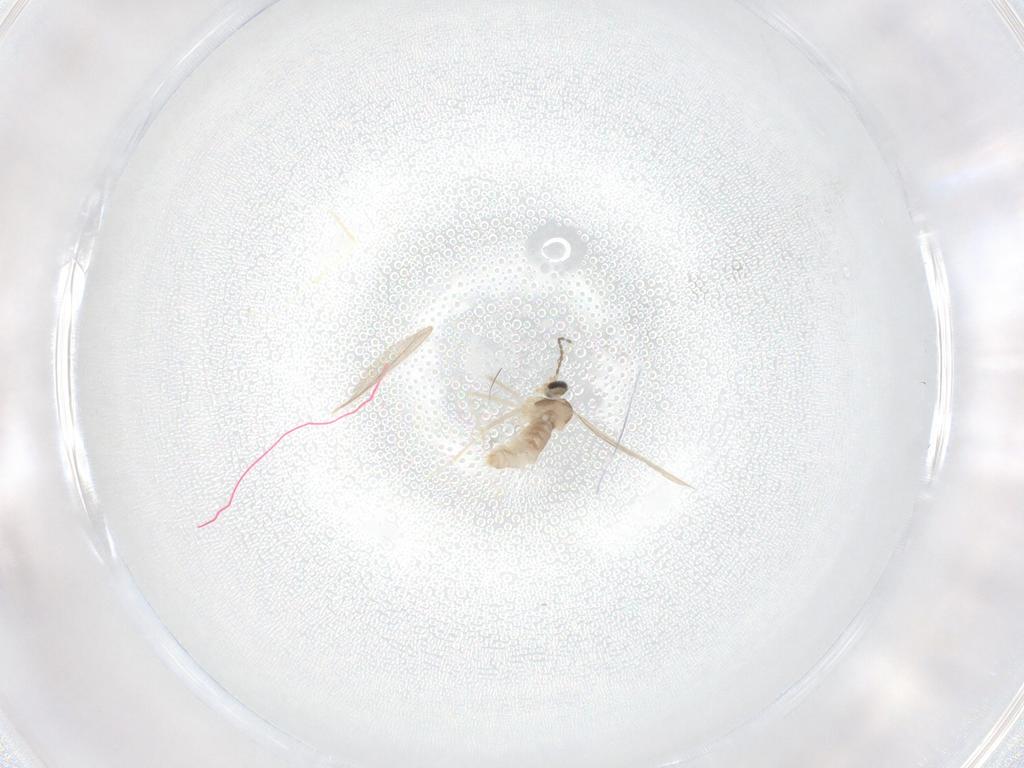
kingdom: Animalia
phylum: Arthropoda
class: Insecta
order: Diptera
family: Cecidomyiidae
